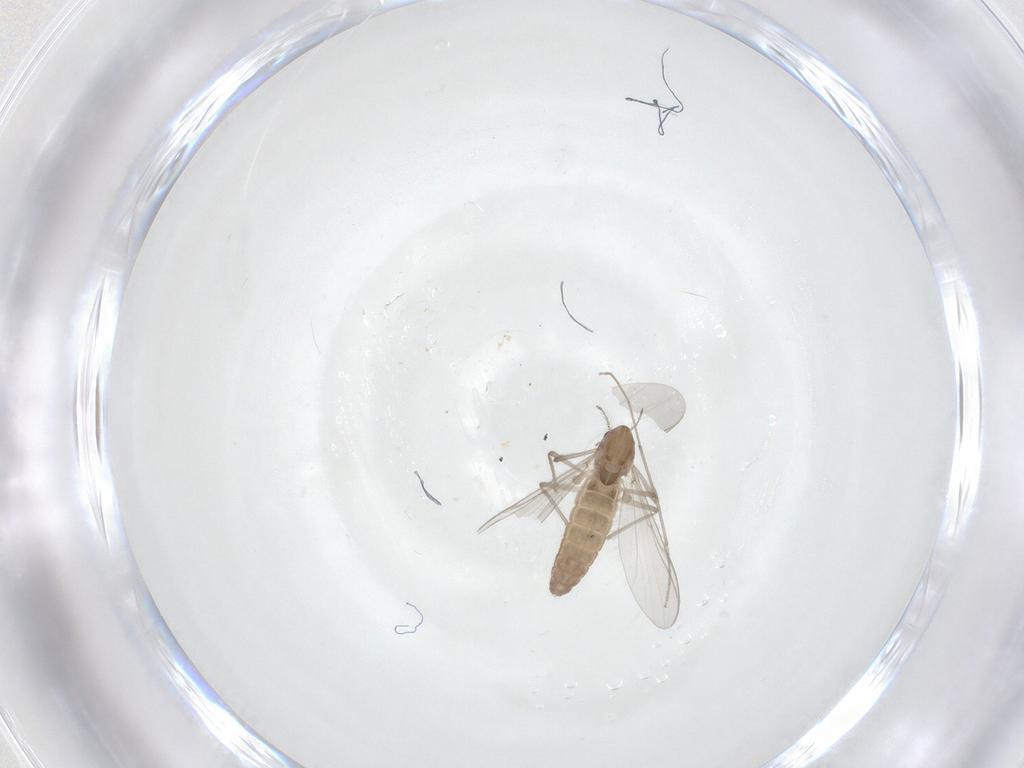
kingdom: Animalia
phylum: Arthropoda
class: Insecta
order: Diptera
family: Chironomidae
